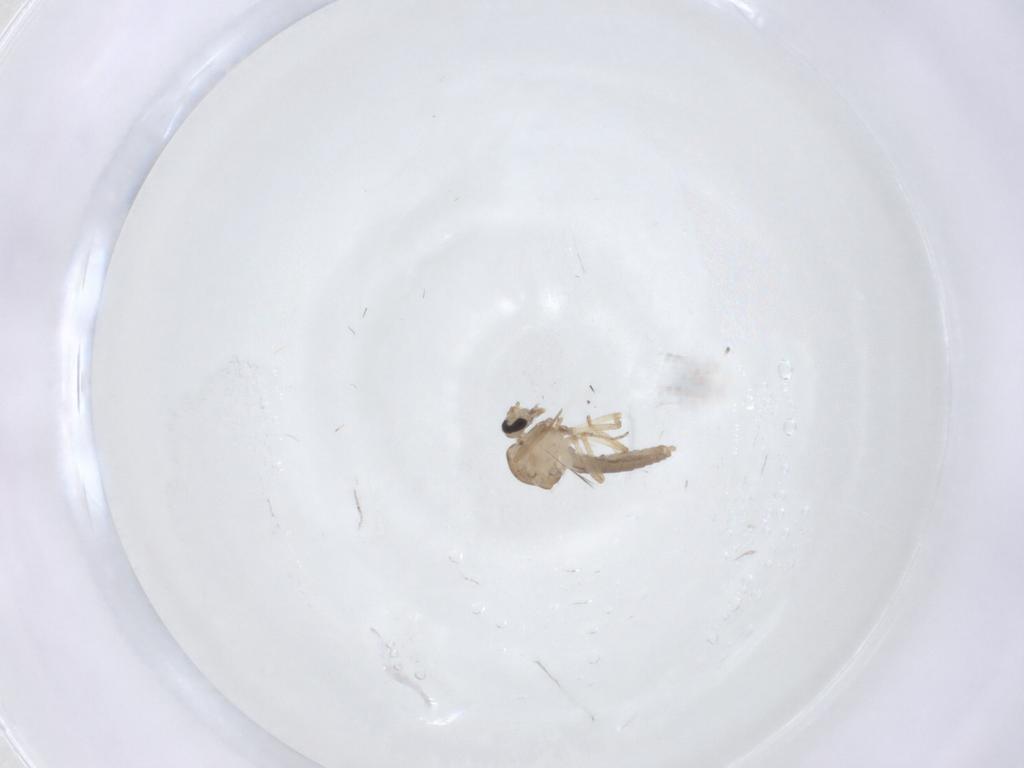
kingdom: Animalia
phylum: Arthropoda
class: Insecta
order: Diptera
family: Ceratopogonidae
